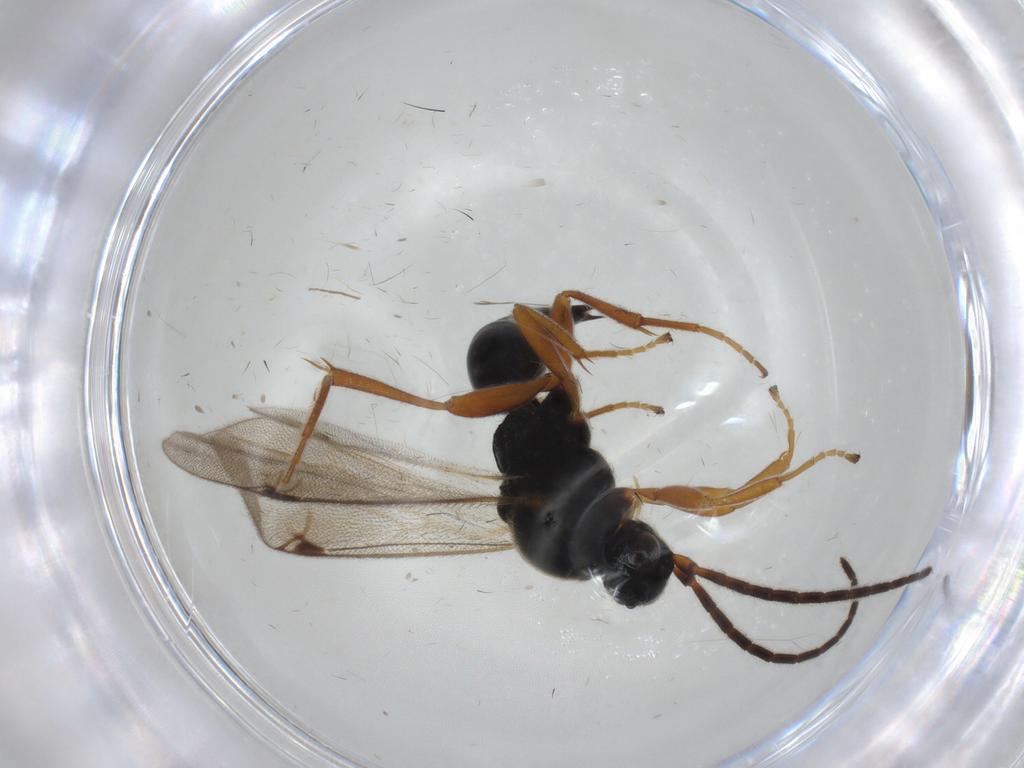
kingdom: Animalia
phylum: Arthropoda
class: Insecta
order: Hymenoptera
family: Proctotrupidae
